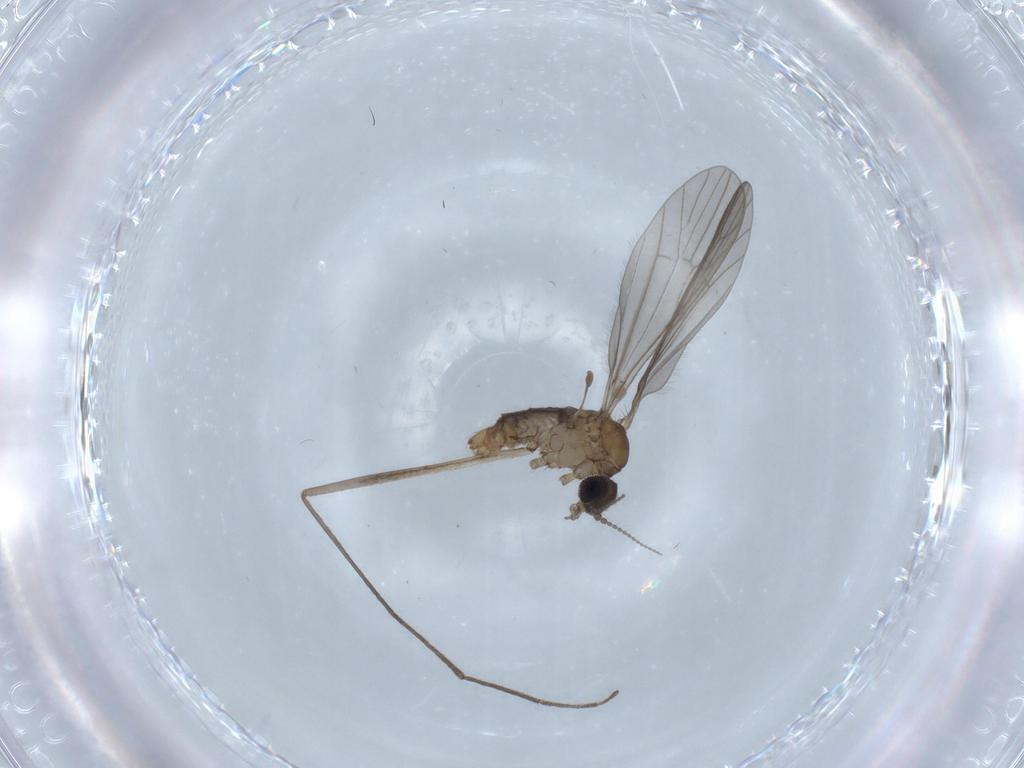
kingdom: Animalia
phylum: Arthropoda
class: Insecta
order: Diptera
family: Limoniidae
